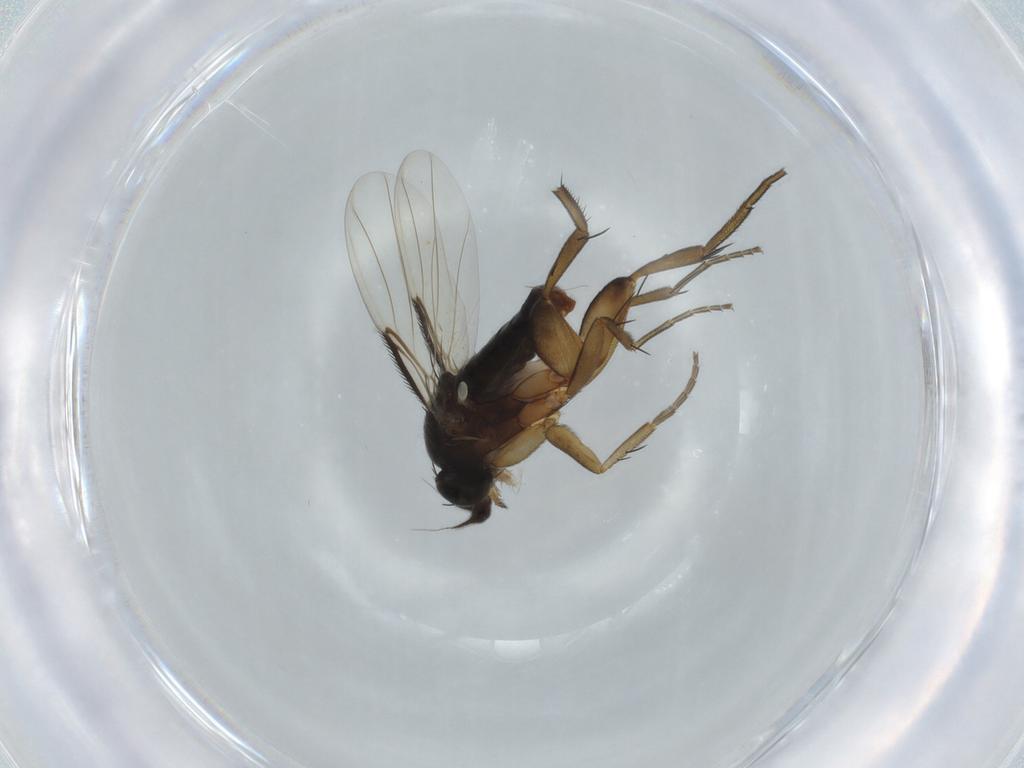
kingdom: Animalia
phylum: Arthropoda
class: Insecta
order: Diptera
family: Phoridae
